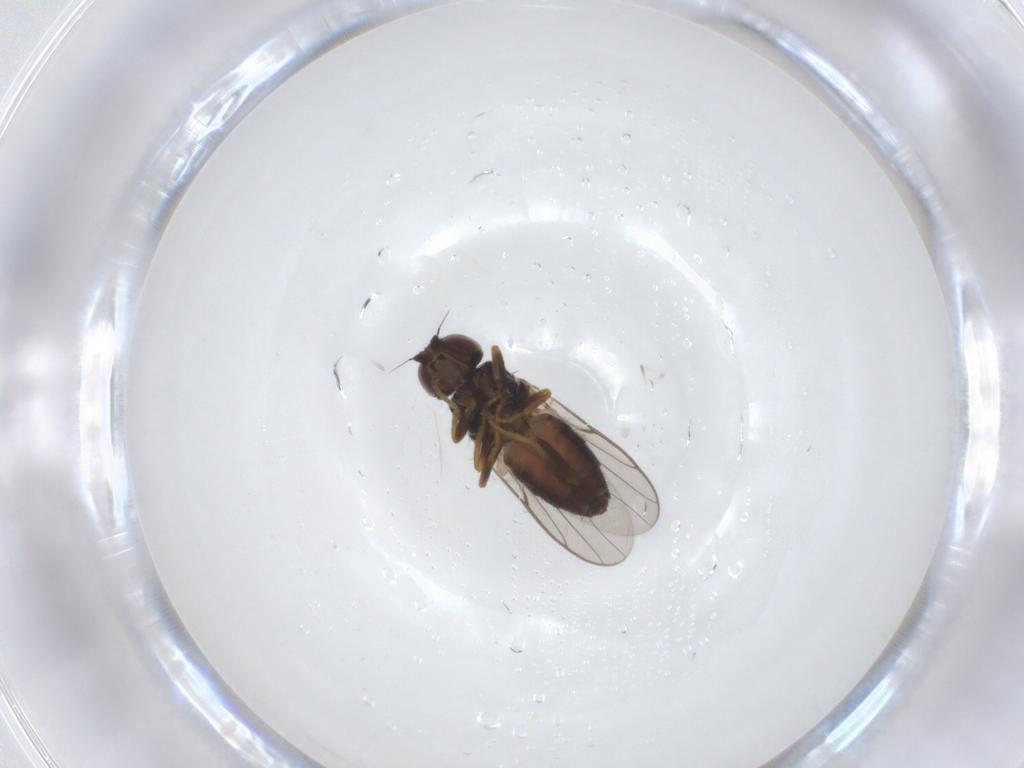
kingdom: Animalia
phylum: Arthropoda
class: Insecta
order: Diptera
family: Chloropidae
